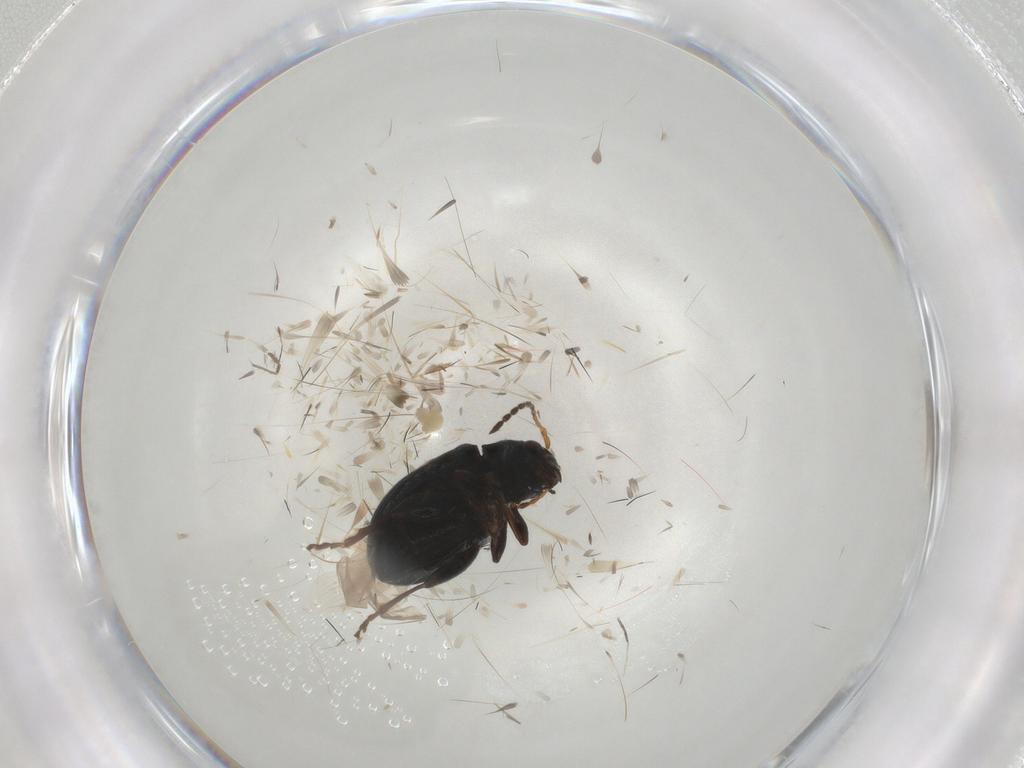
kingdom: Animalia
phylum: Arthropoda
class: Insecta
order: Coleoptera
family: Chrysomelidae
